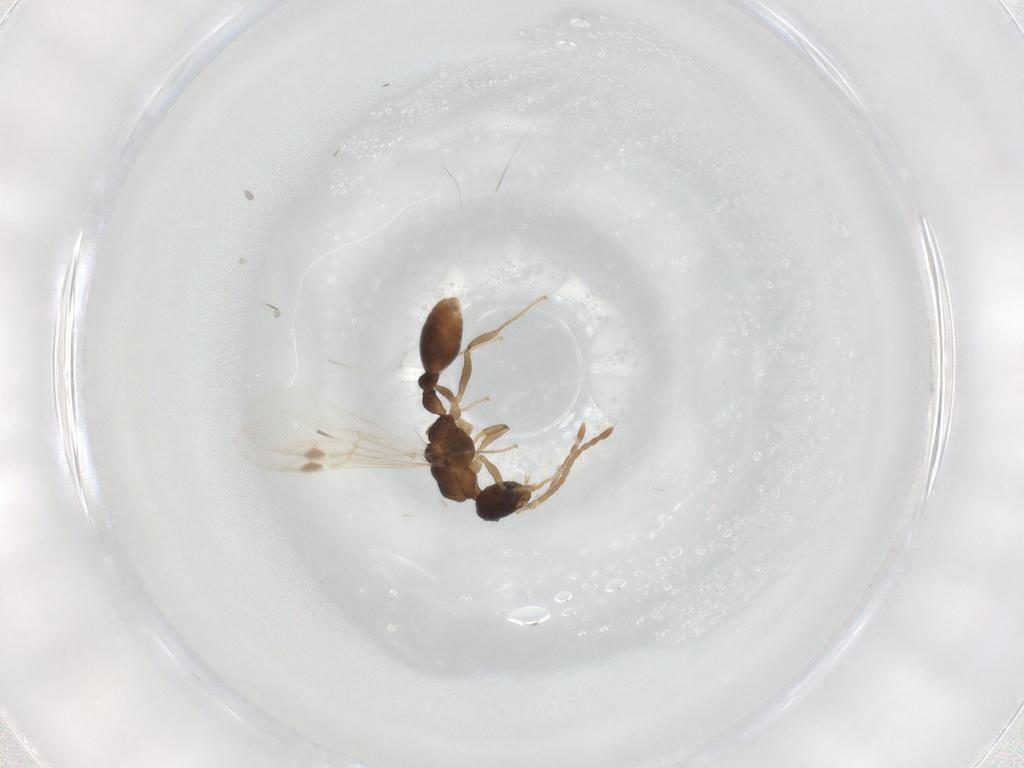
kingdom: Animalia
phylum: Arthropoda
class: Insecta
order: Hymenoptera
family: Formicidae
